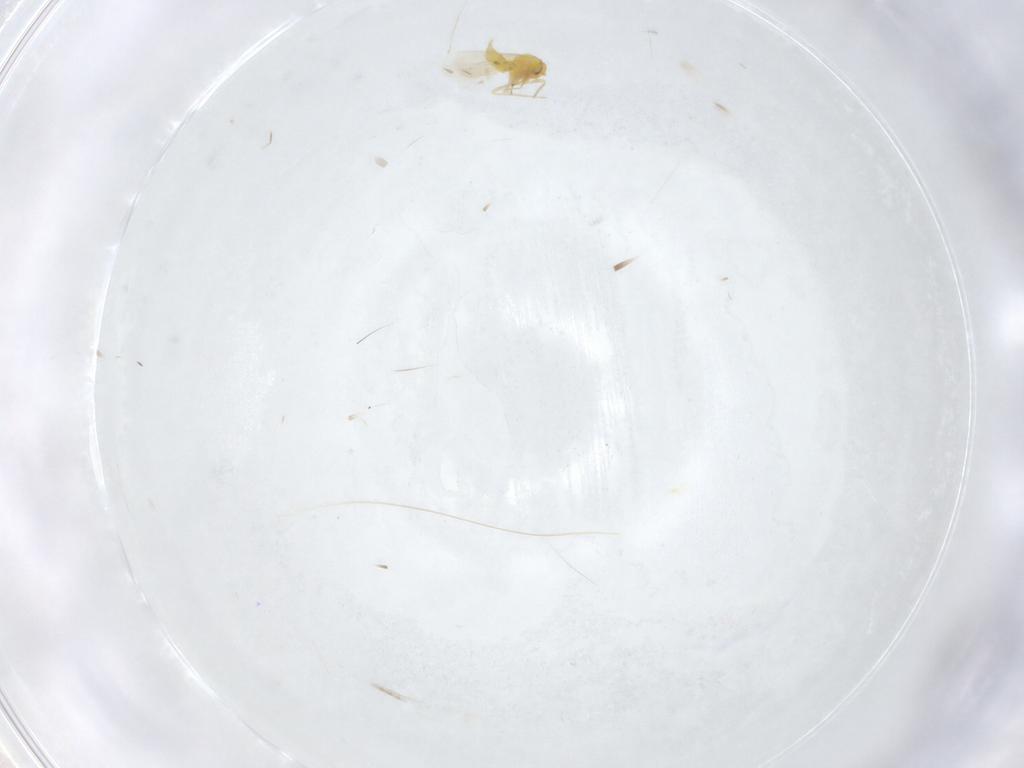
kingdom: Animalia
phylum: Arthropoda
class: Insecta
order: Hemiptera
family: Aleyrodidae
